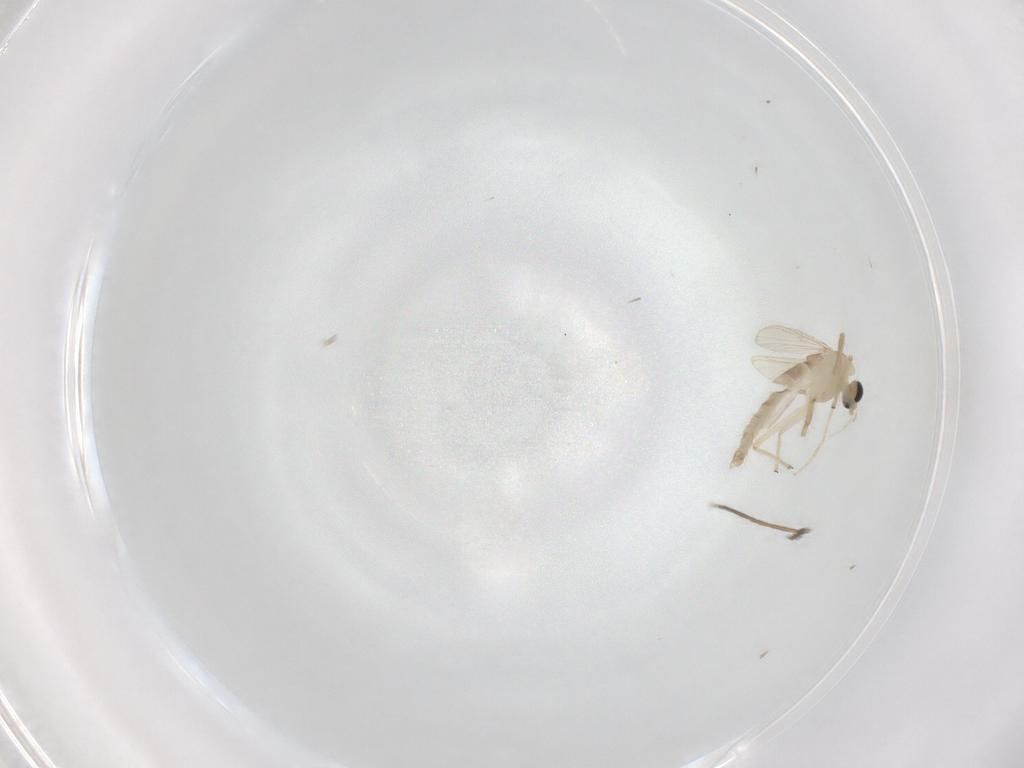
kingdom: Animalia
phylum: Arthropoda
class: Insecta
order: Diptera
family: Chironomidae
